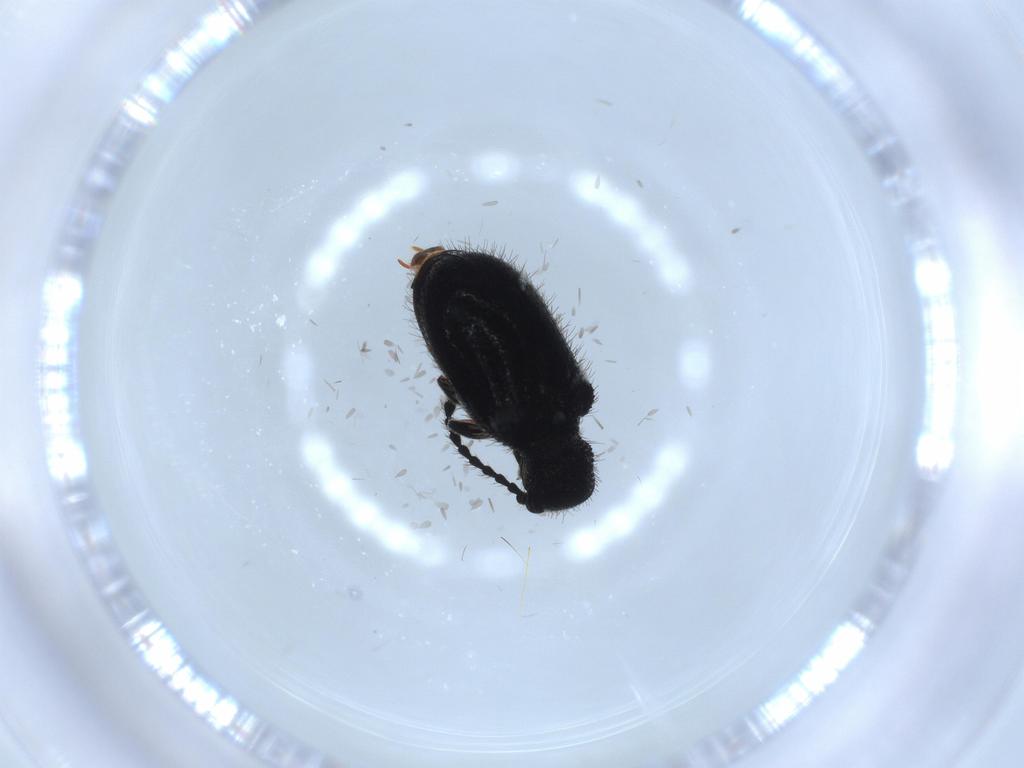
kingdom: Animalia
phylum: Arthropoda
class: Insecta
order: Coleoptera
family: Ptinidae
